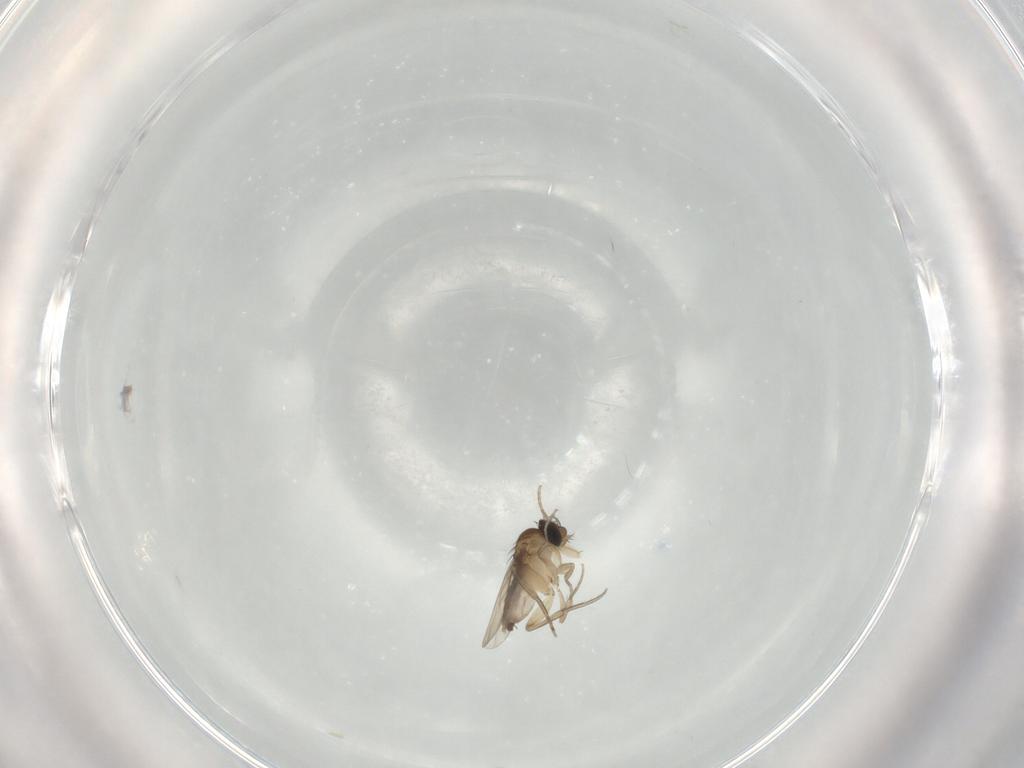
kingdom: Animalia
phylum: Arthropoda
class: Insecta
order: Diptera
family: Phoridae
